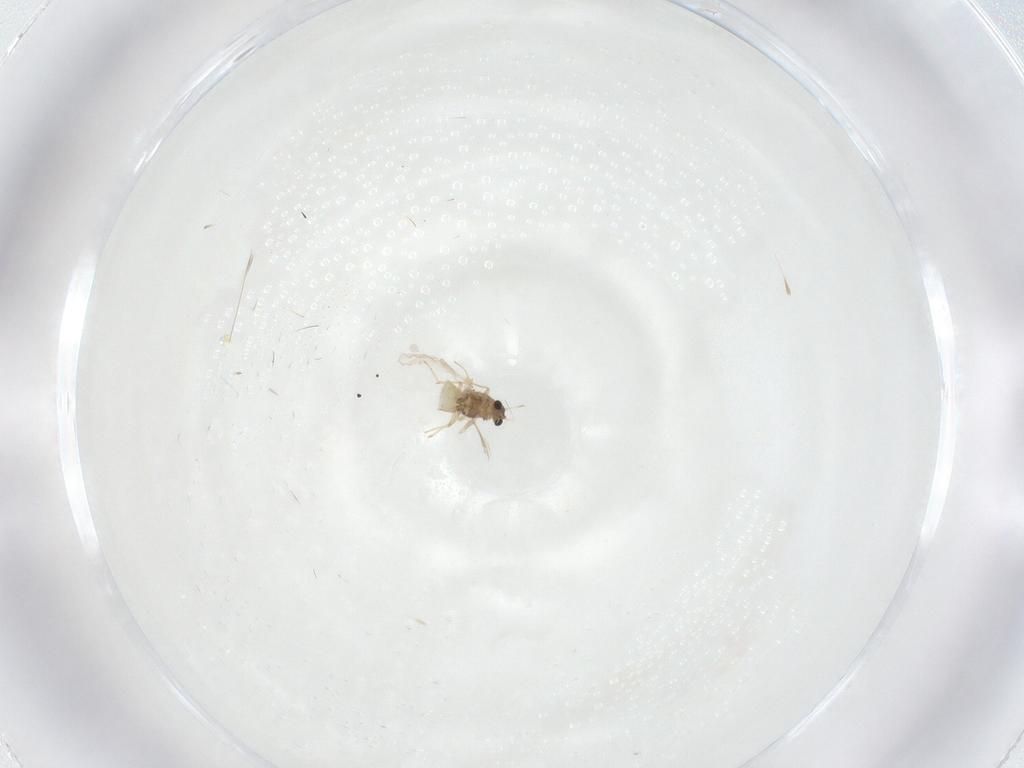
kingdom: Animalia
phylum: Arthropoda
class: Insecta
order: Diptera
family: Chironomidae
